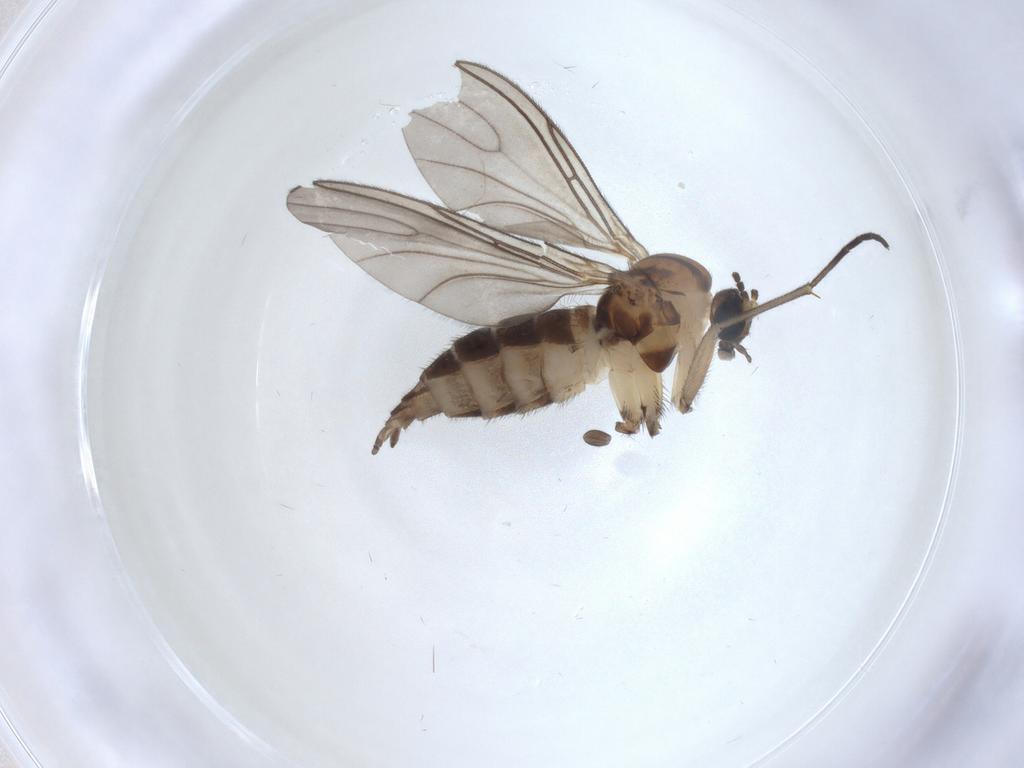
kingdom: Animalia
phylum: Arthropoda
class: Insecta
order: Diptera
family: Sciaridae
